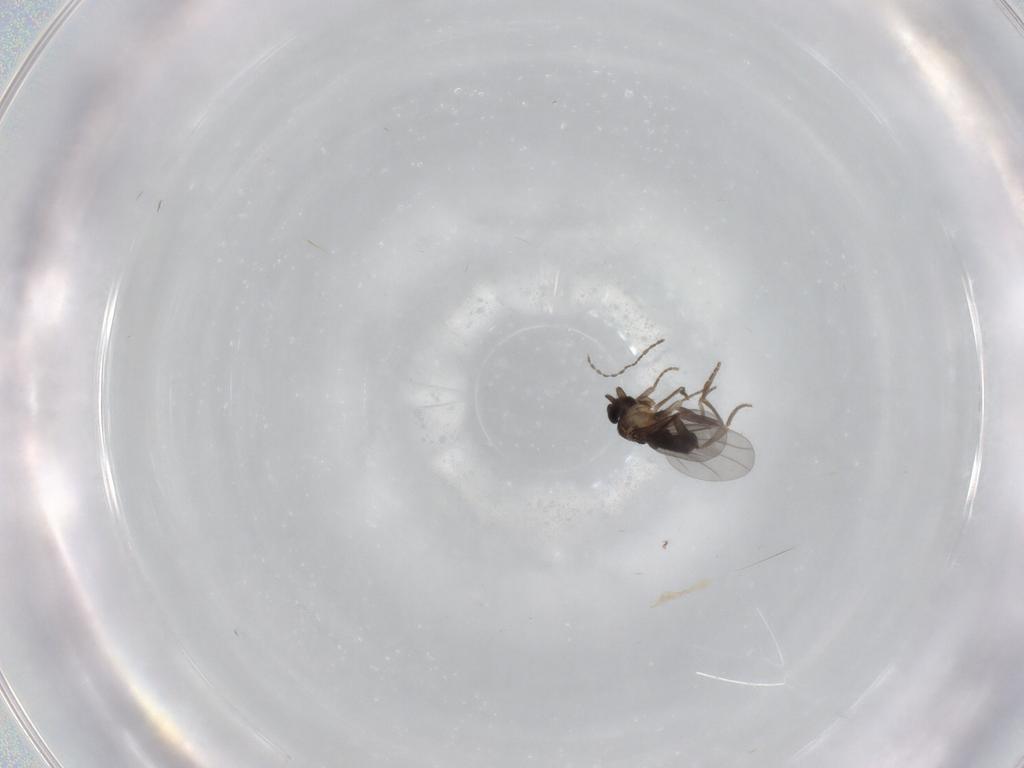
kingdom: Animalia
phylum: Arthropoda
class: Insecta
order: Diptera
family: Cecidomyiidae
